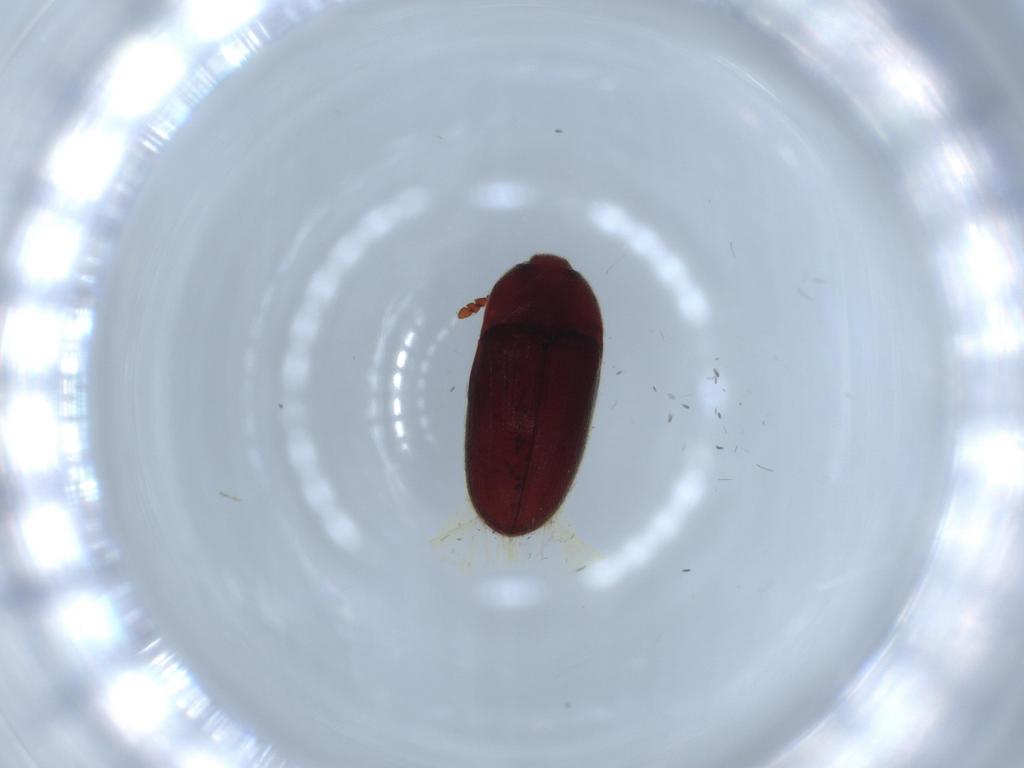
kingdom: Animalia
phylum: Arthropoda
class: Insecta
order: Coleoptera
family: Throscidae
